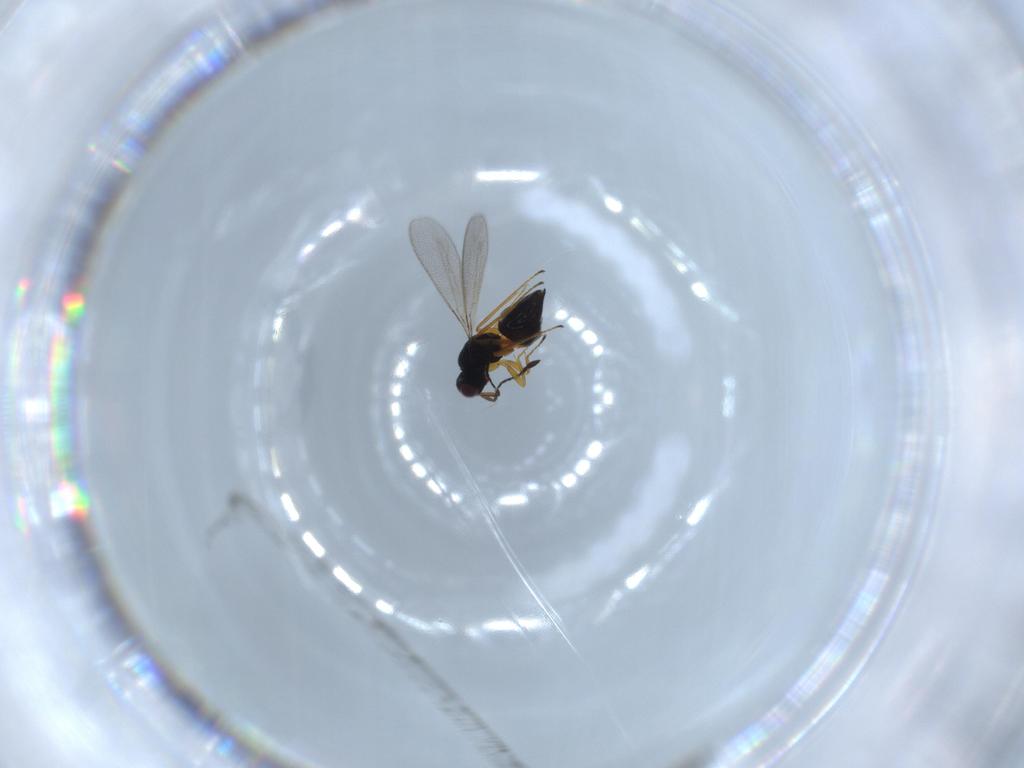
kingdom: Animalia
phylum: Arthropoda
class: Insecta
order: Hymenoptera
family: Mymaridae
